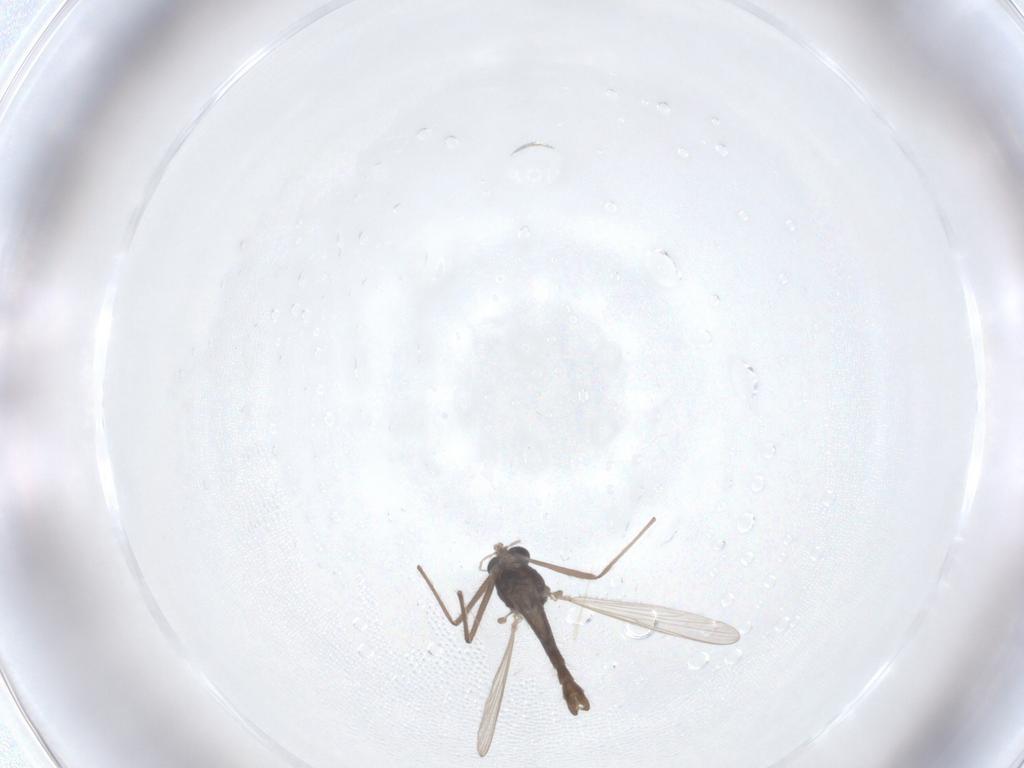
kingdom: Animalia
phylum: Arthropoda
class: Insecta
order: Diptera
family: Chironomidae
